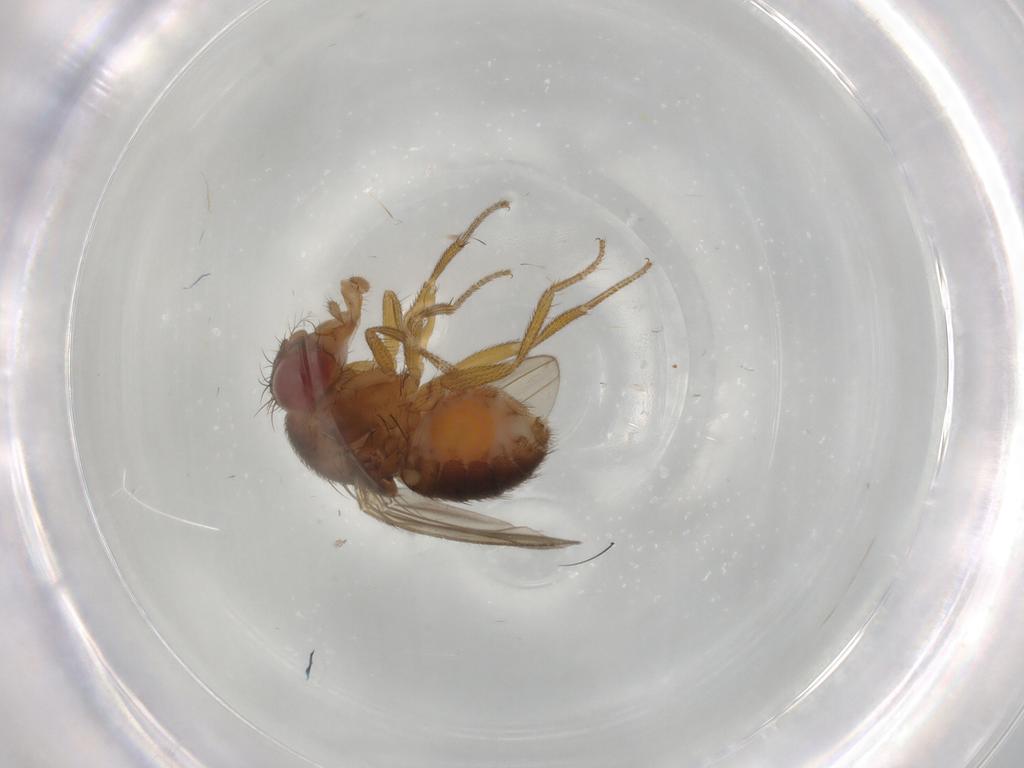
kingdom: Animalia
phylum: Arthropoda
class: Insecta
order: Diptera
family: Drosophilidae
